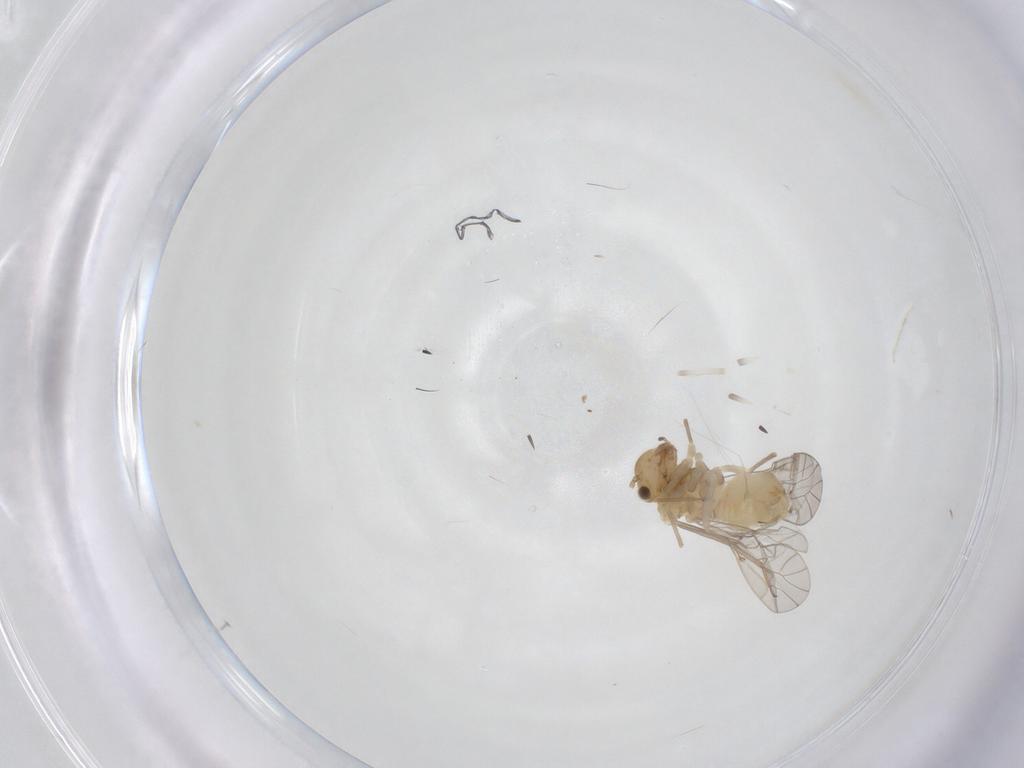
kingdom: Animalia
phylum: Arthropoda
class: Insecta
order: Psocodea
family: Lachesillidae
